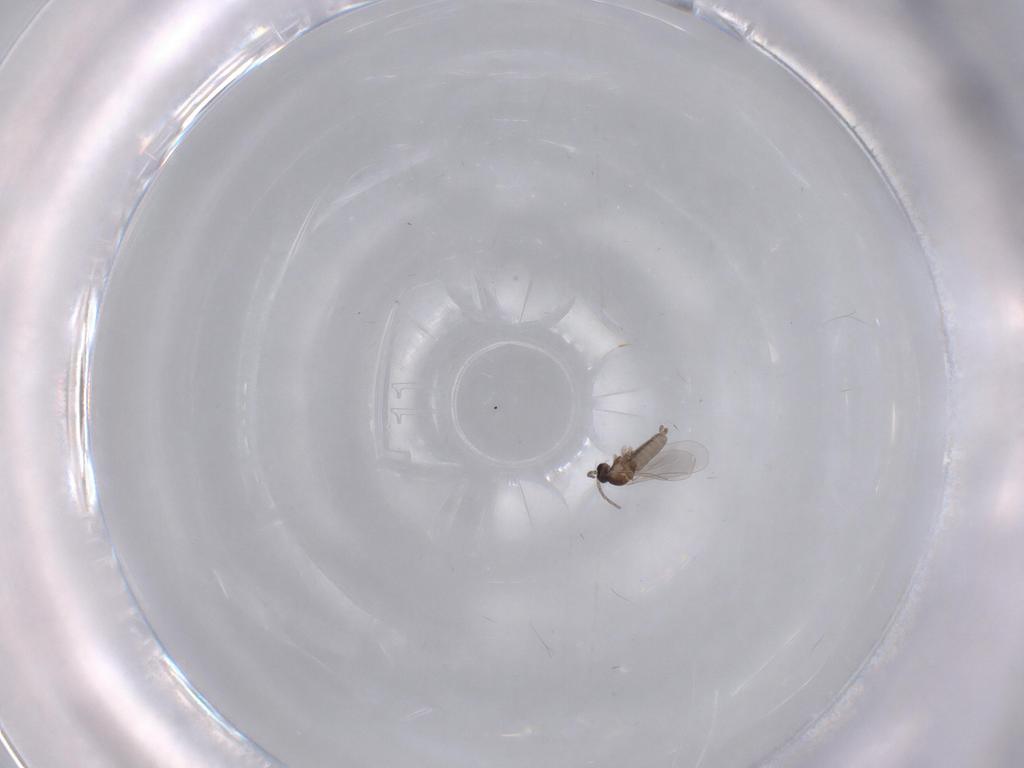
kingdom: Animalia
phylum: Arthropoda
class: Insecta
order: Diptera
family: Cecidomyiidae
